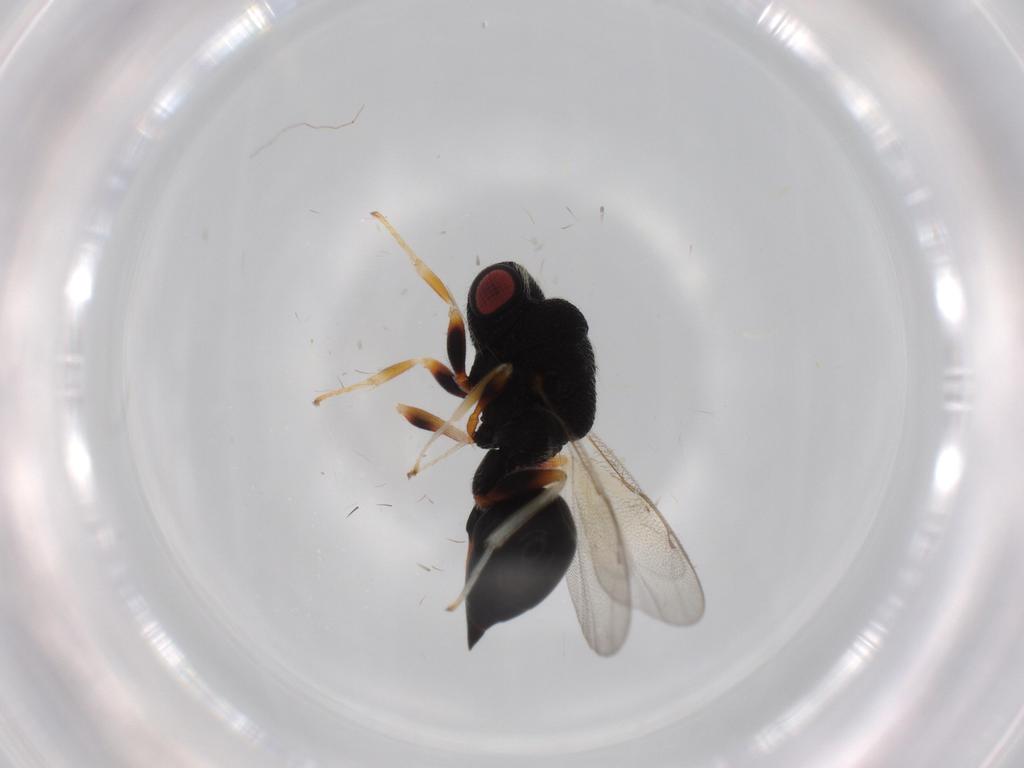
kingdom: Animalia
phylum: Arthropoda
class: Insecta
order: Hymenoptera
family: Eurytomidae
